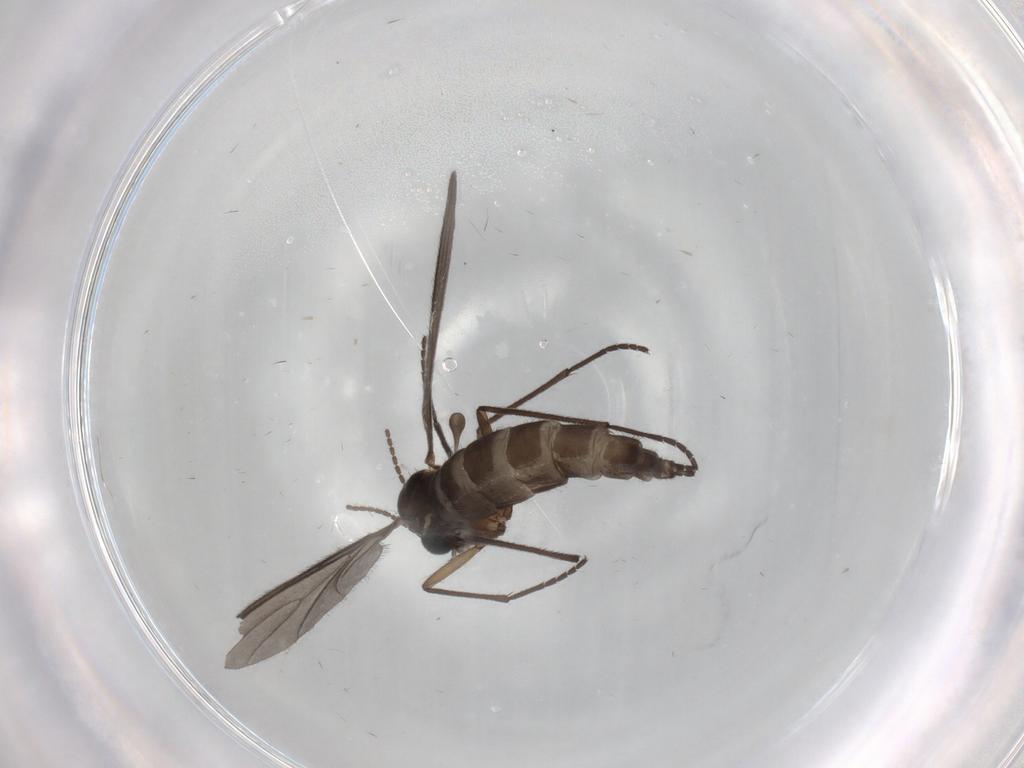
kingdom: Animalia
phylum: Arthropoda
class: Insecta
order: Diptera
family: Sciaridae
